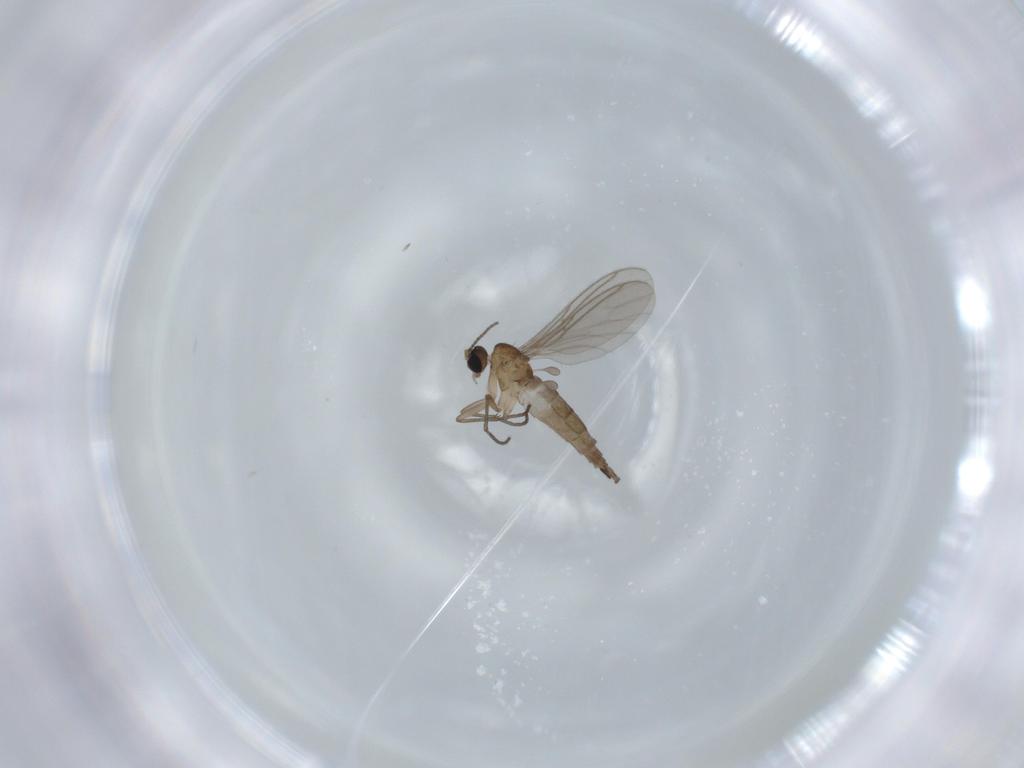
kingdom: Animalia
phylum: Arthropoda
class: Insecta
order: Diptera
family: Sciaridae
